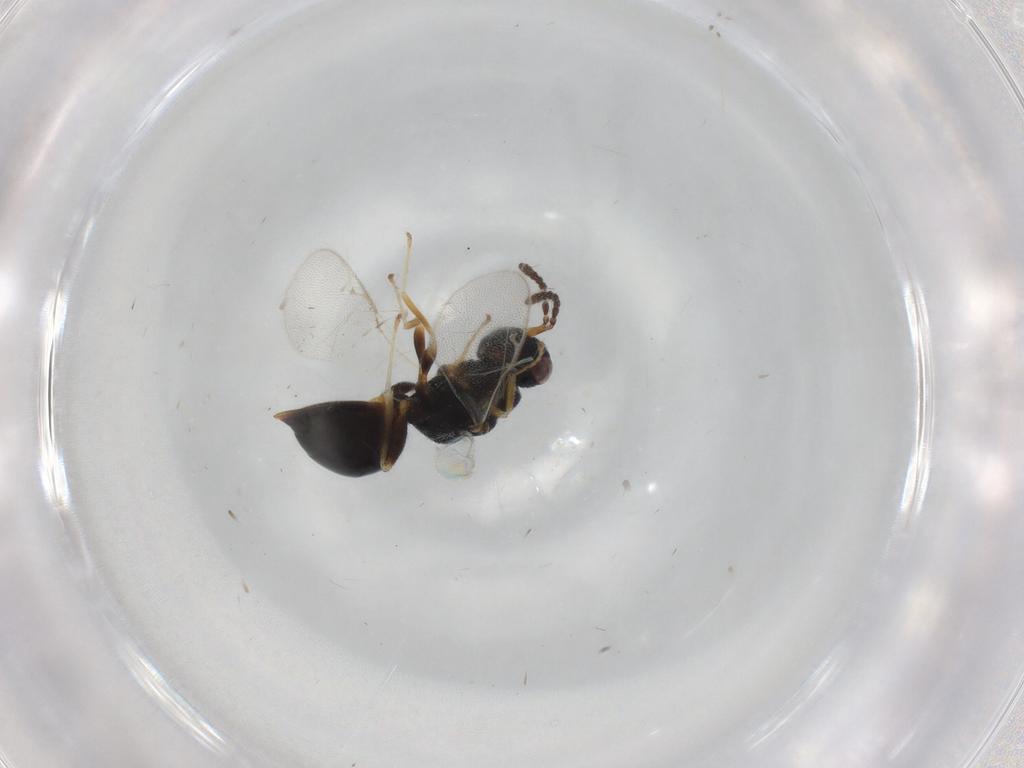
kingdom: Animalia
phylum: Arthropoda
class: Insecta
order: Hymenoptera
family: Eurytomidae
